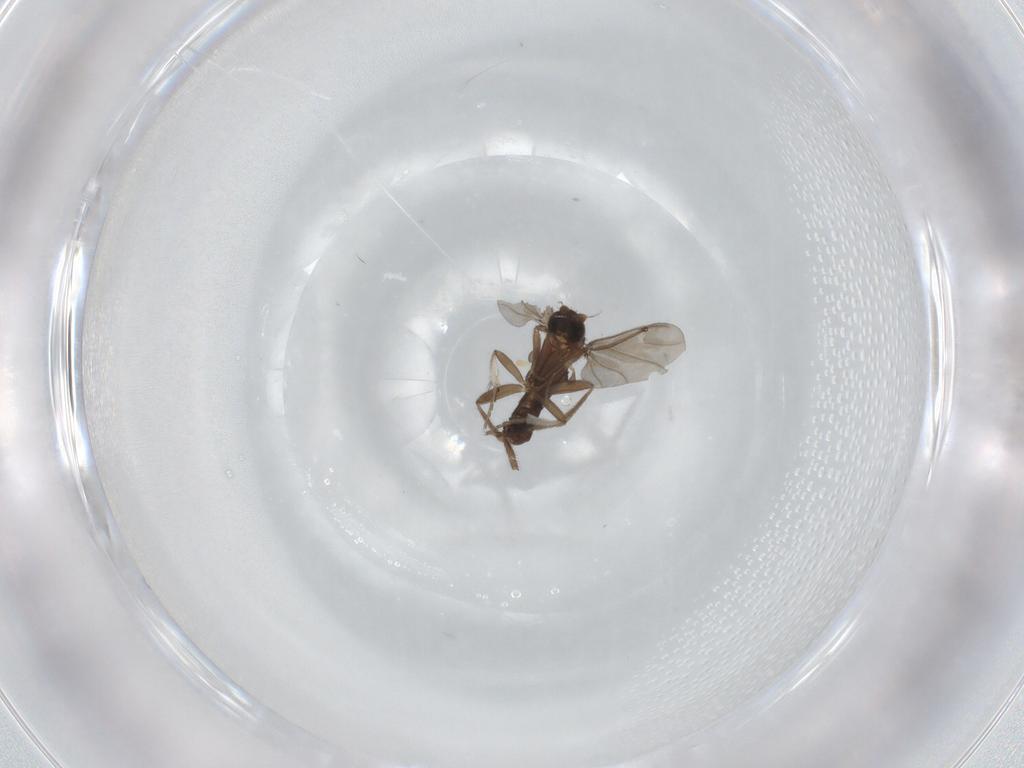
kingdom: Animalia
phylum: Arthropoda
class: Insecta
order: Diptera
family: Phoridae
